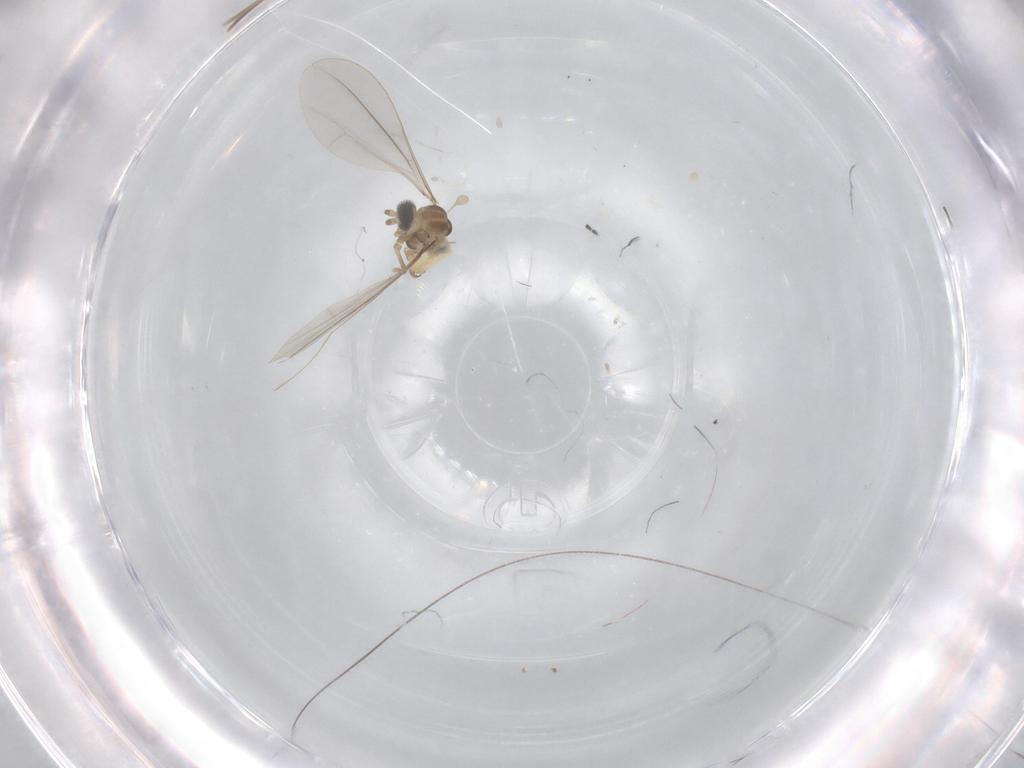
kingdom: Animalia
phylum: Arthropoda
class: Insecta
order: Diptera
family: Cecidomyiidae
